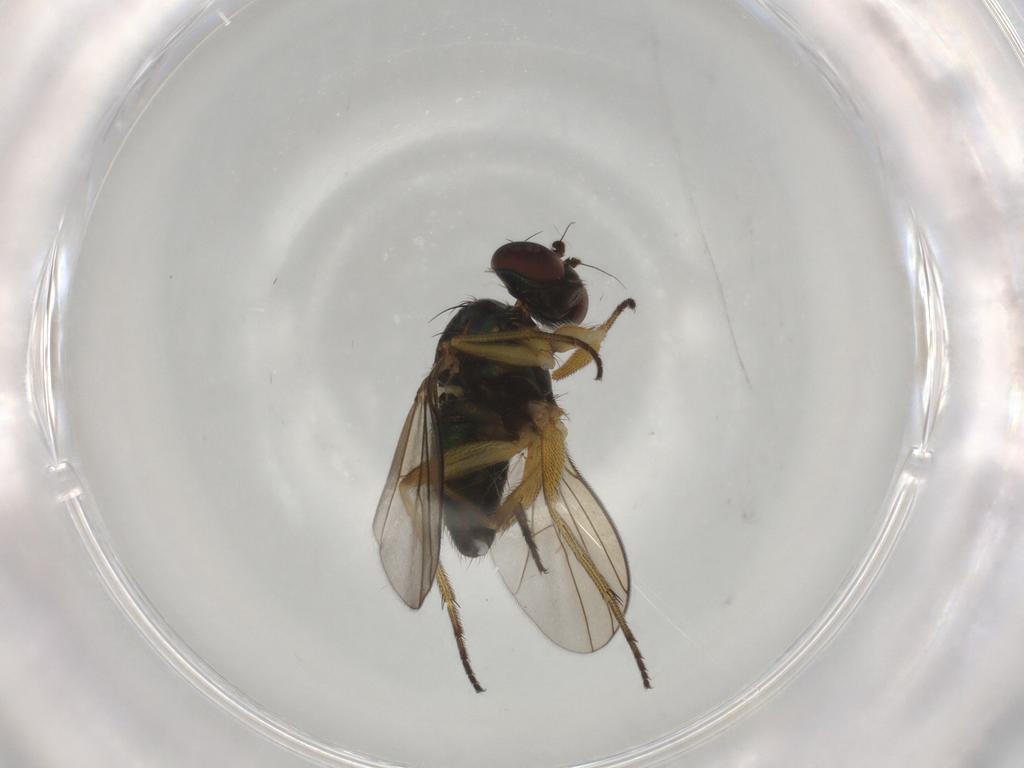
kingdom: Animalia
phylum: Arthropoda
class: Insecta
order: Diptera
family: Dolichopodidae
